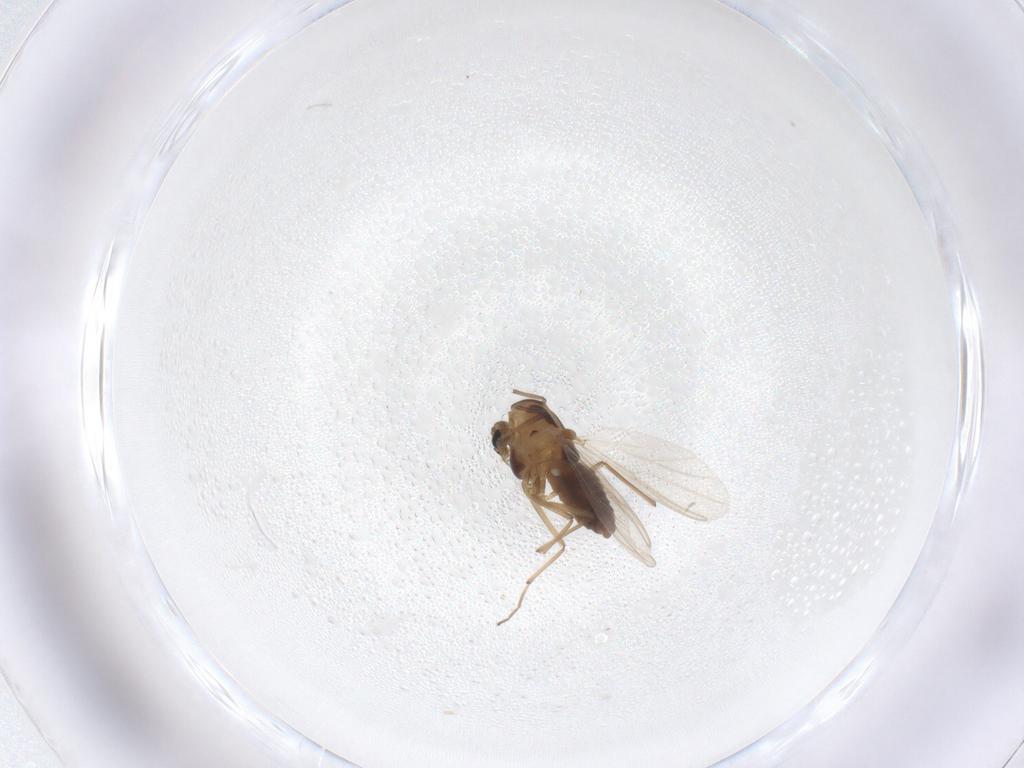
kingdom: Animalia
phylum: Arthropoda
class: Insecta
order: Diptera
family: Chironomidae
